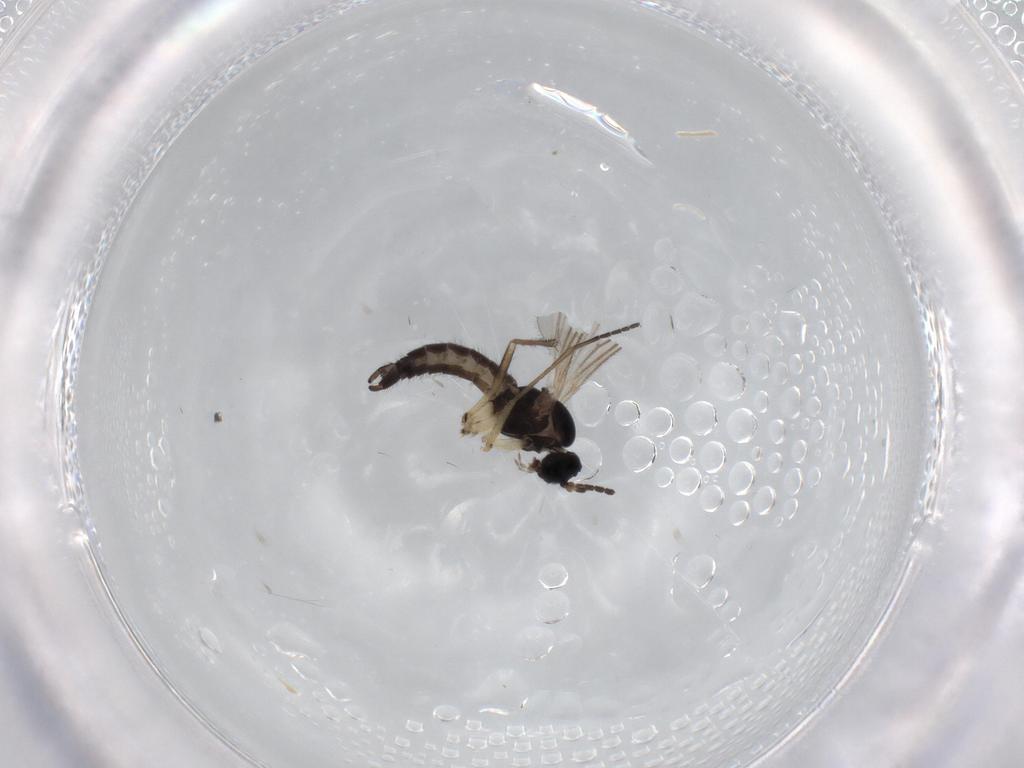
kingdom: Animalia
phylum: Arthropoda
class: Insecta
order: Diptera
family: Sciaridae
